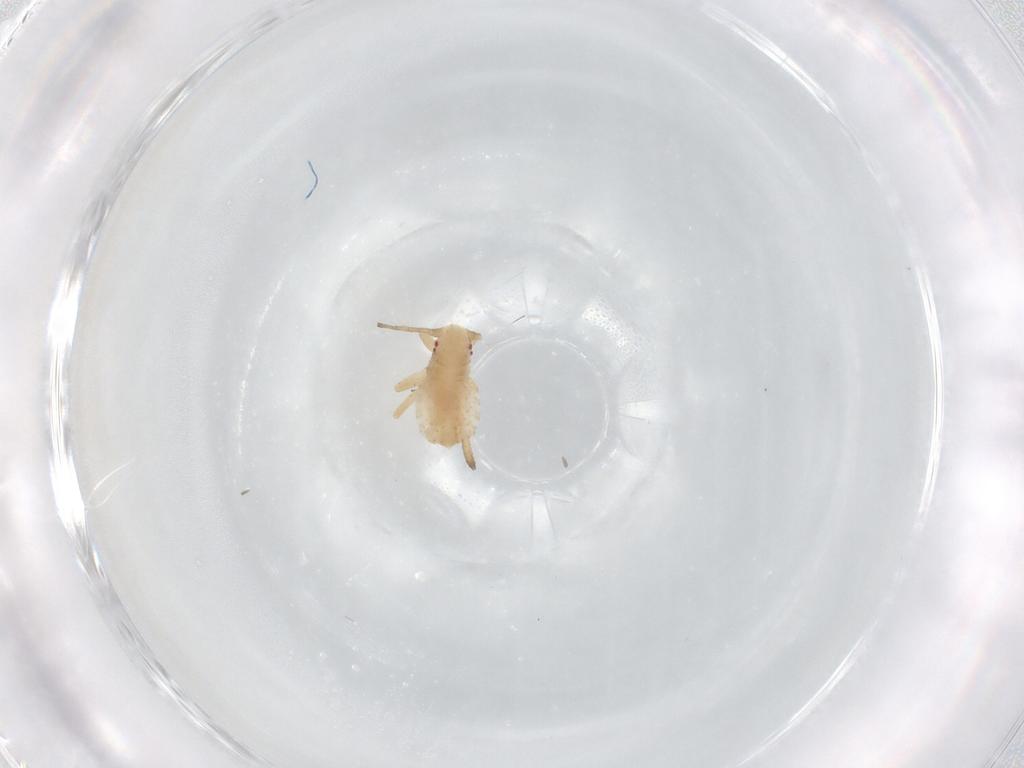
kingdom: Animalia
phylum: Arthropoda
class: Insecta
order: Hemiptera
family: Aphididae
